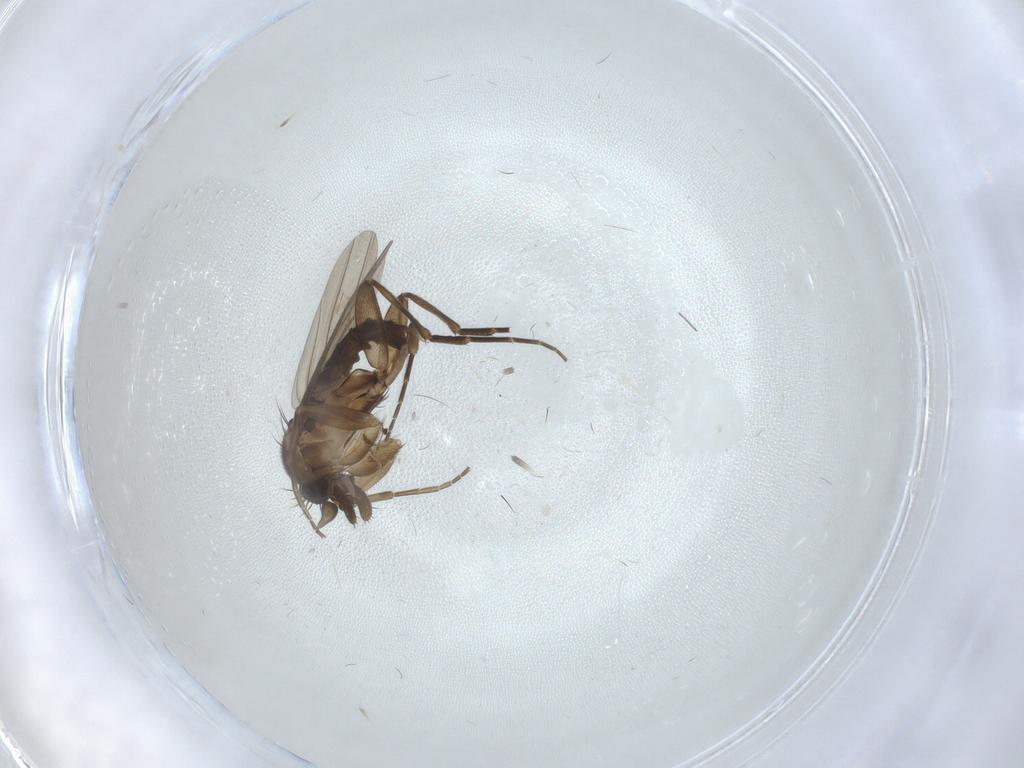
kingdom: Animalia
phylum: Arthropoda
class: Insecta
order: Diptera
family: Phoridae
